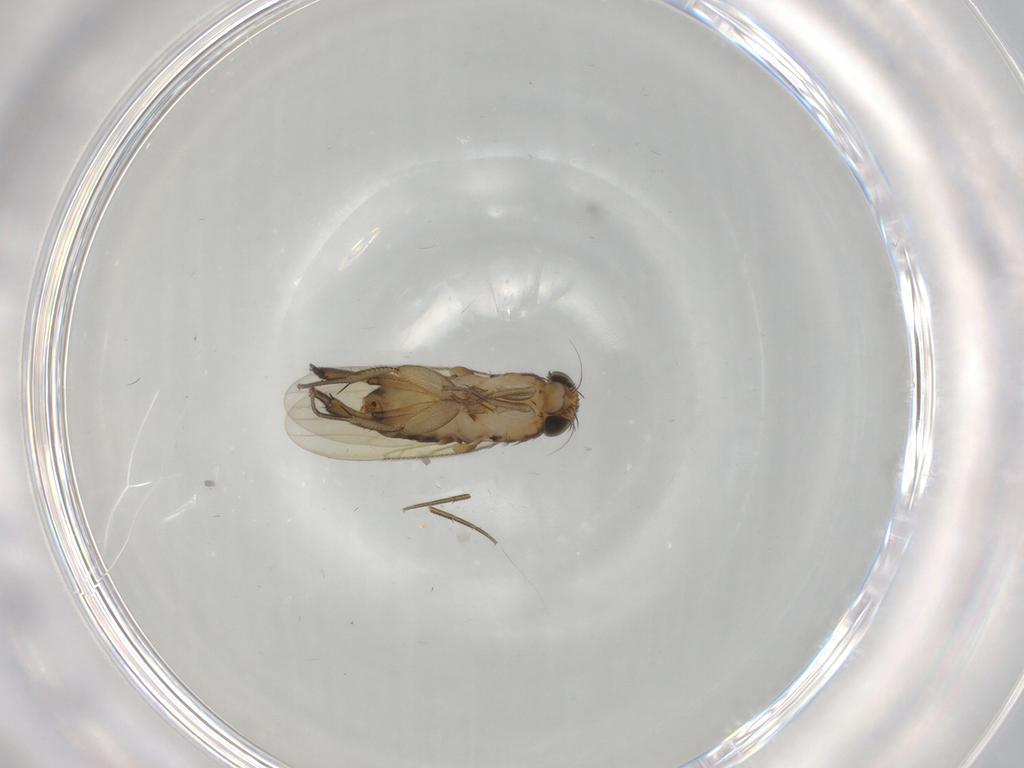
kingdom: Animalia
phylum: Arthropoda
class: Insecta
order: Diptera
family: Phoridae
